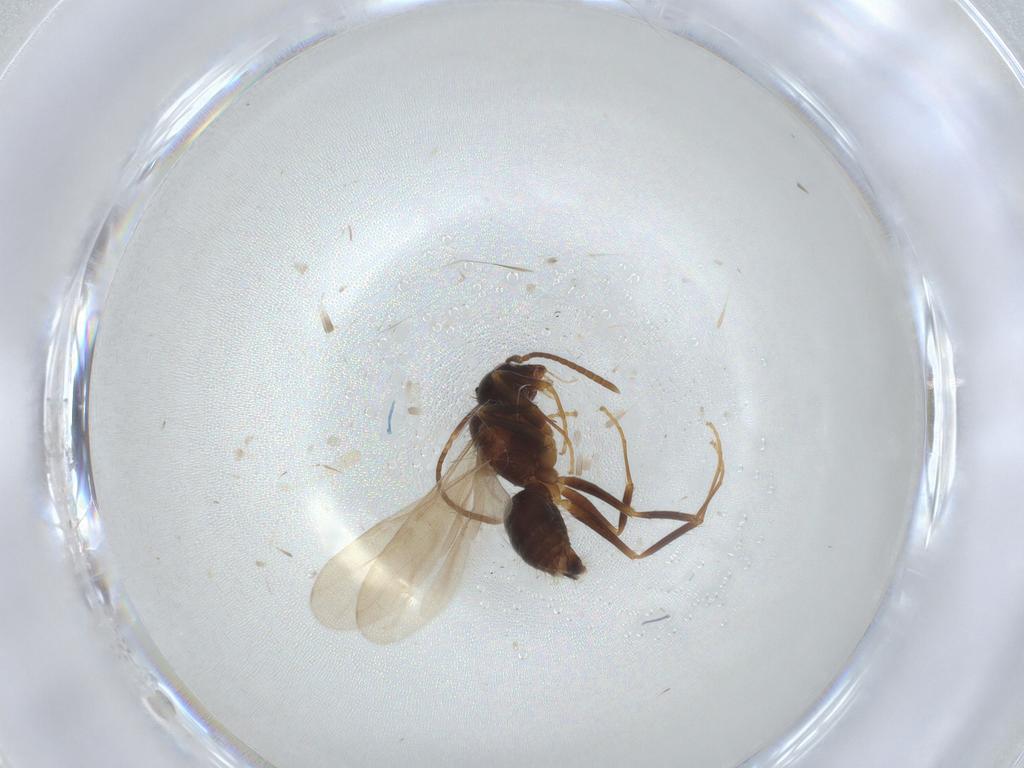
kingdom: Animalia
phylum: Arthropoda
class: Insecta
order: Hymenoptera
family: Formicidae
